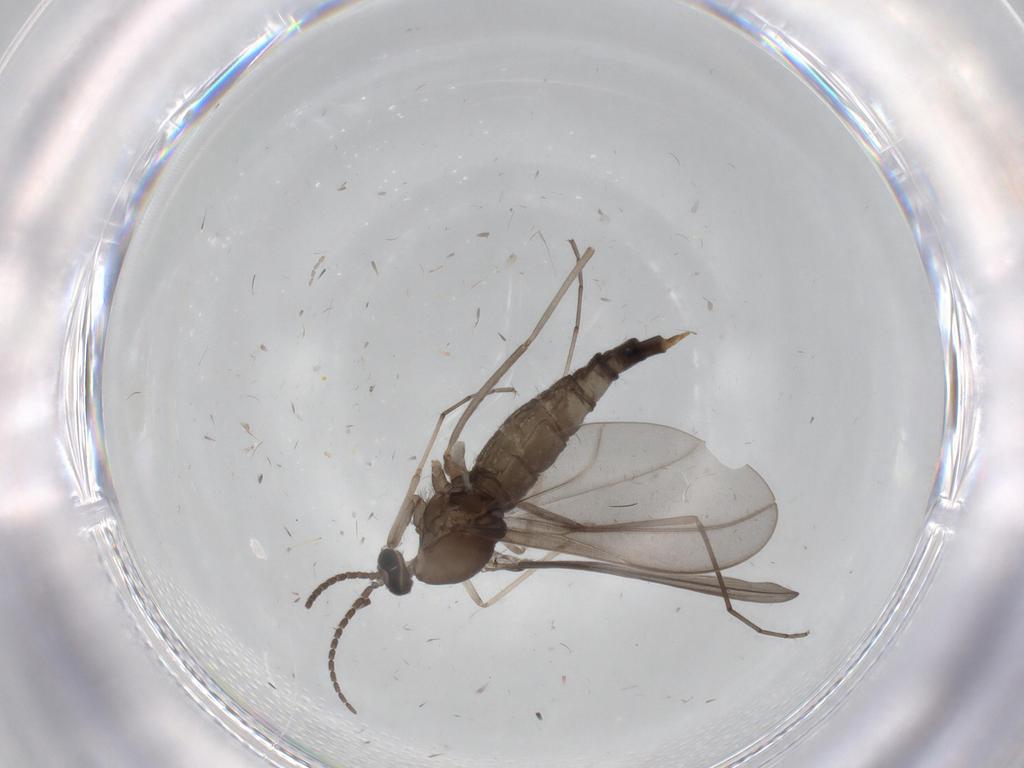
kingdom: Animalia
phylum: Arthropoda
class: Insecta
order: Diptera
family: Cecidomyiidae
